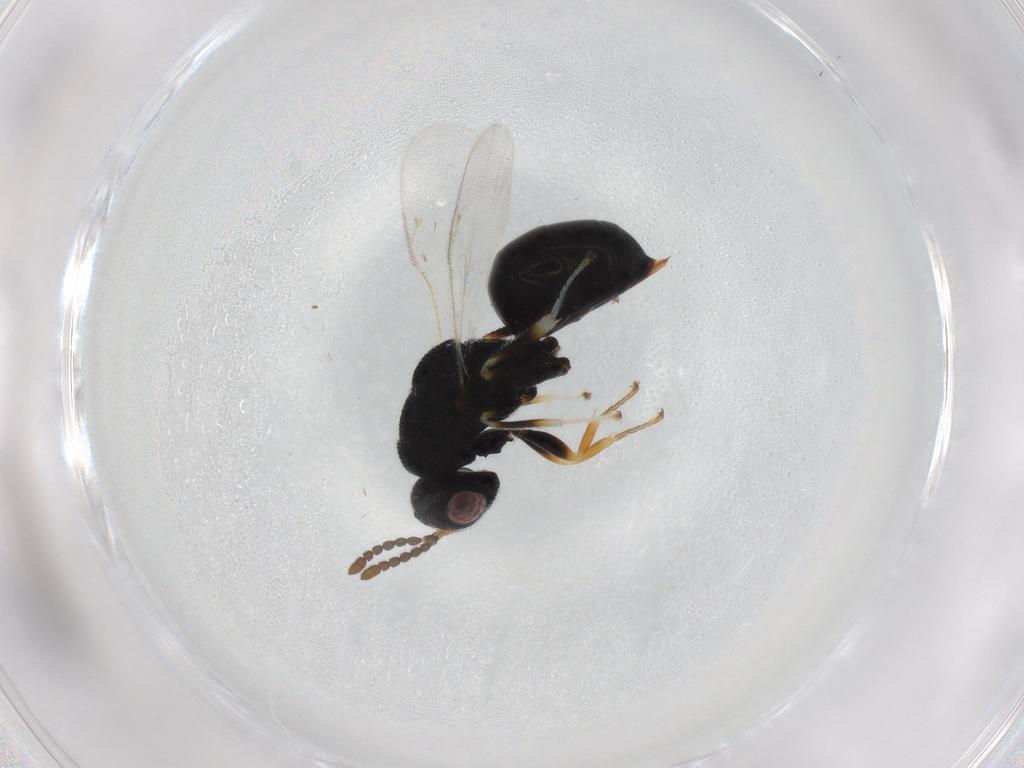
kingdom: Animalia
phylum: Arthropoda
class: Insecta
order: Hymenoptera
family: Eurytomidae
